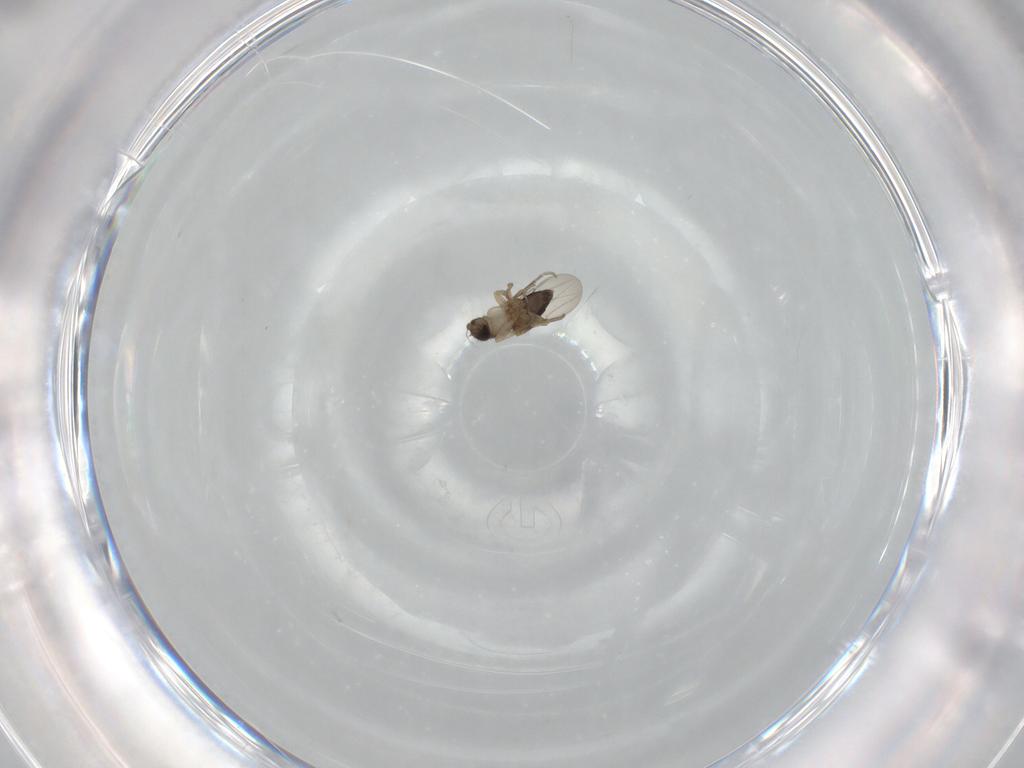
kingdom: Animalia
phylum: Arthropoda
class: Insecta
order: Diptera
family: Phoridae
